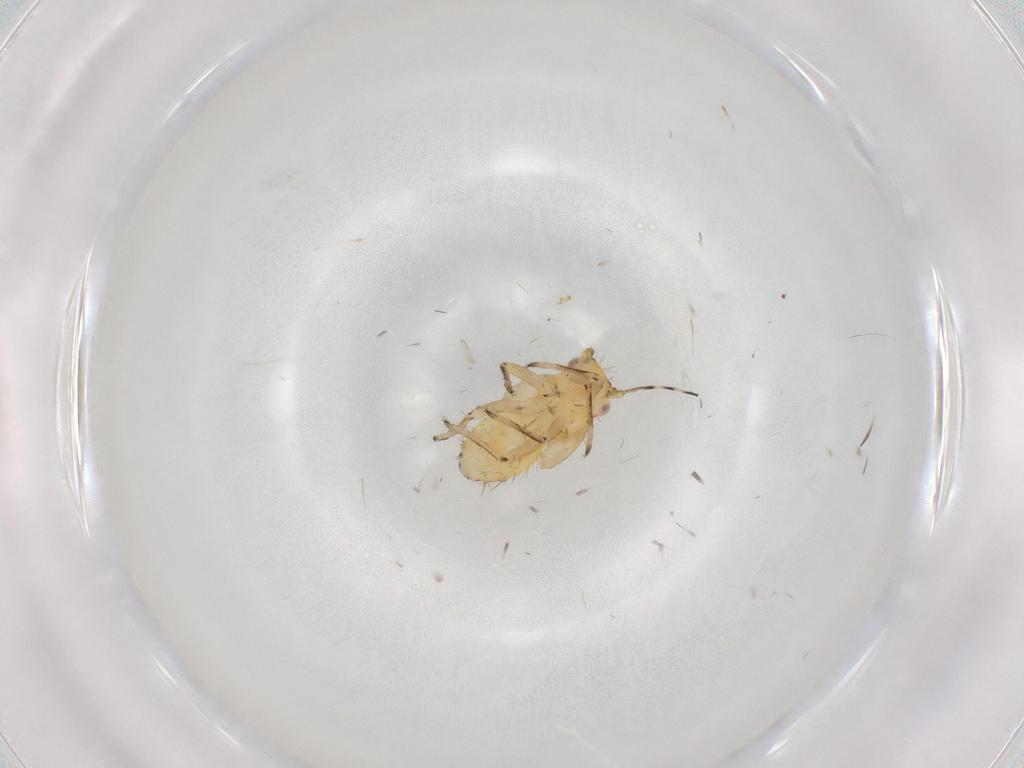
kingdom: Animalia
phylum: Arthropoda
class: Insecta
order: Hemiptera
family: Psyllidae
